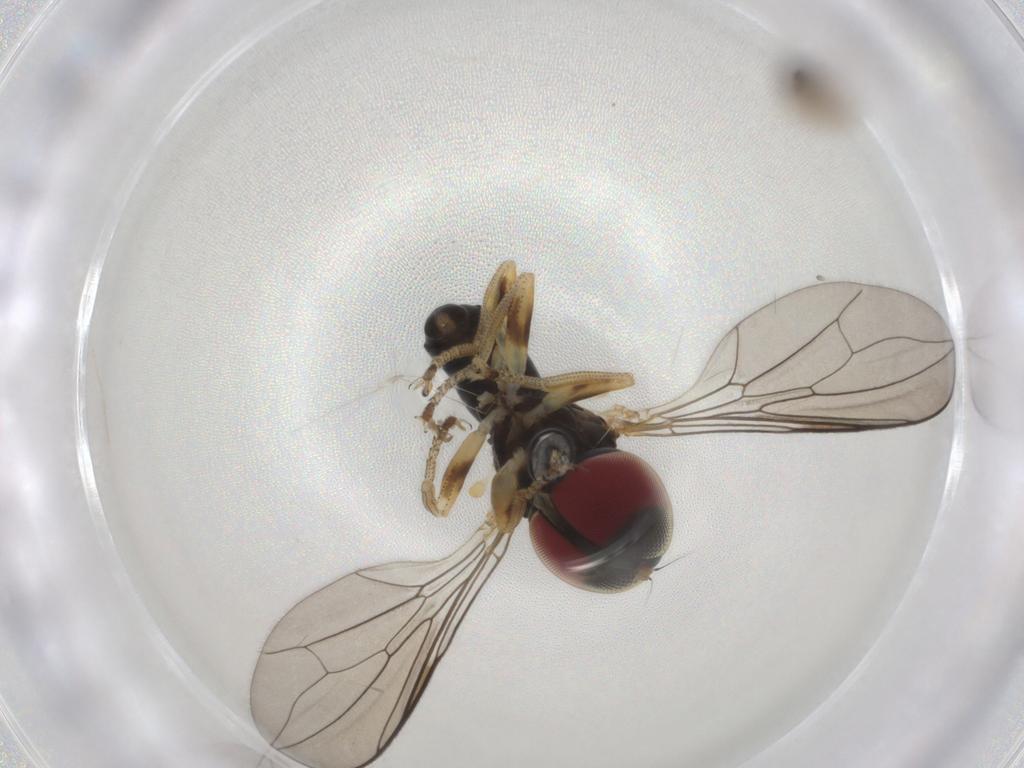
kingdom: Animalia
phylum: Arthropoda
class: Insecta
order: Diptera
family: Pipunculidae
